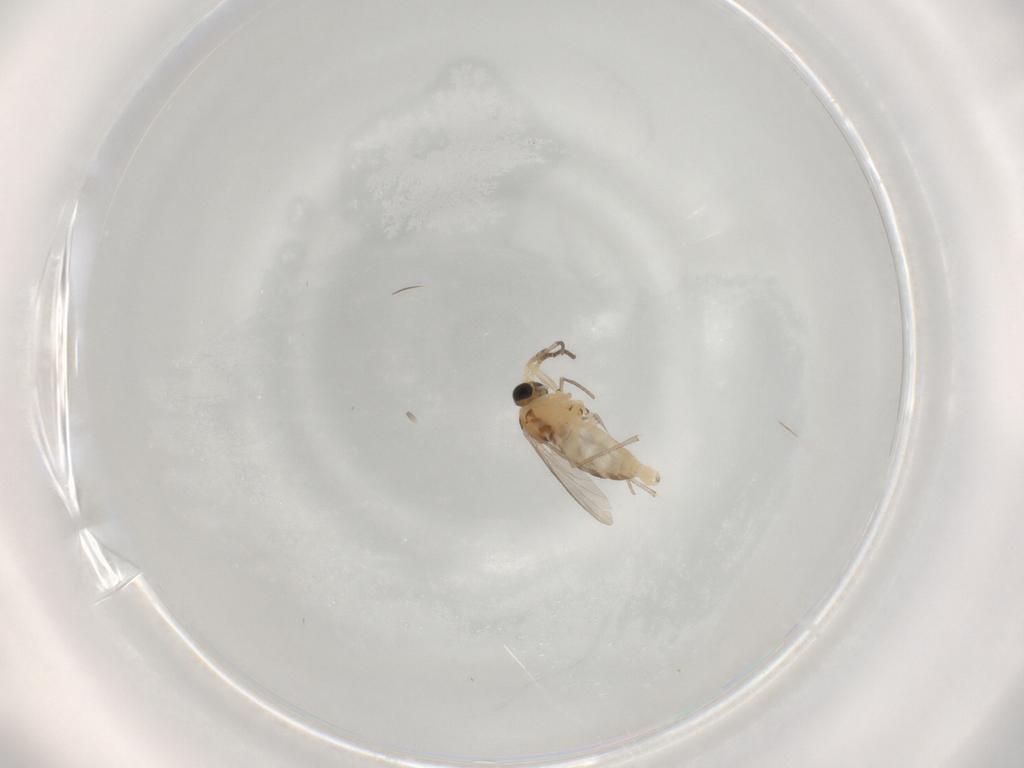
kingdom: Animalia
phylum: Arthropoda
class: Insecta
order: Diptera
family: Sciaridae
